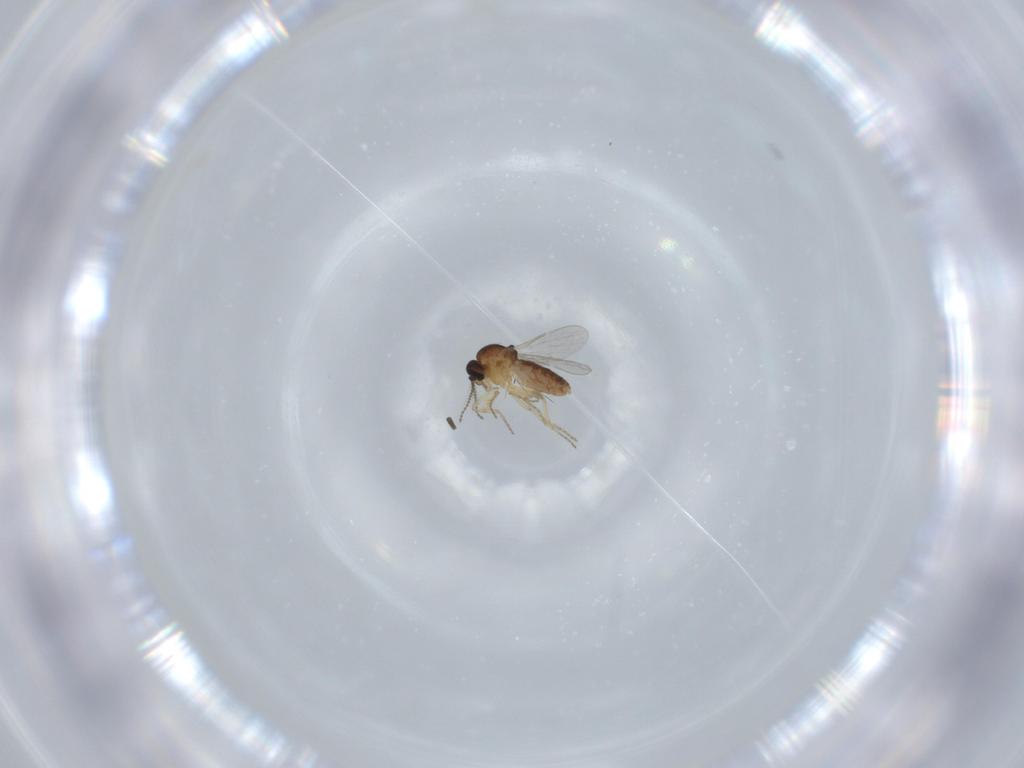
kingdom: Animalia
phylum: Arthropoda
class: Insecta
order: Diptera
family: Ceratopogonidae
